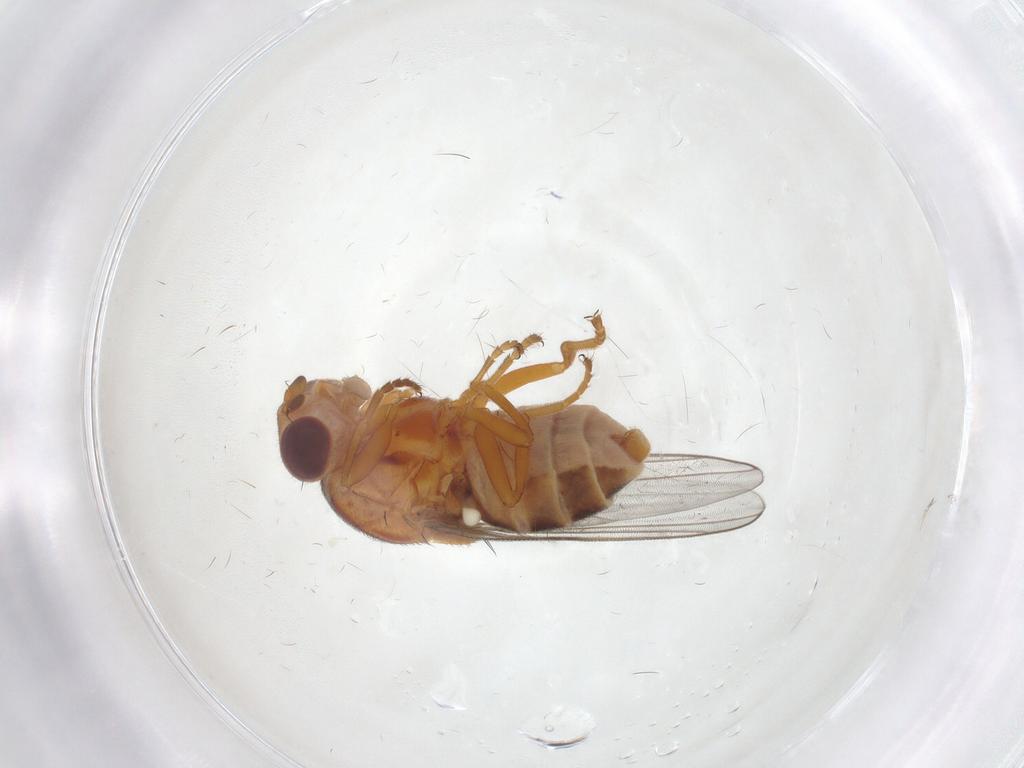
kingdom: Animalia
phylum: Arthropoda
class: Insecta
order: Diptera
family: Chloropidae
